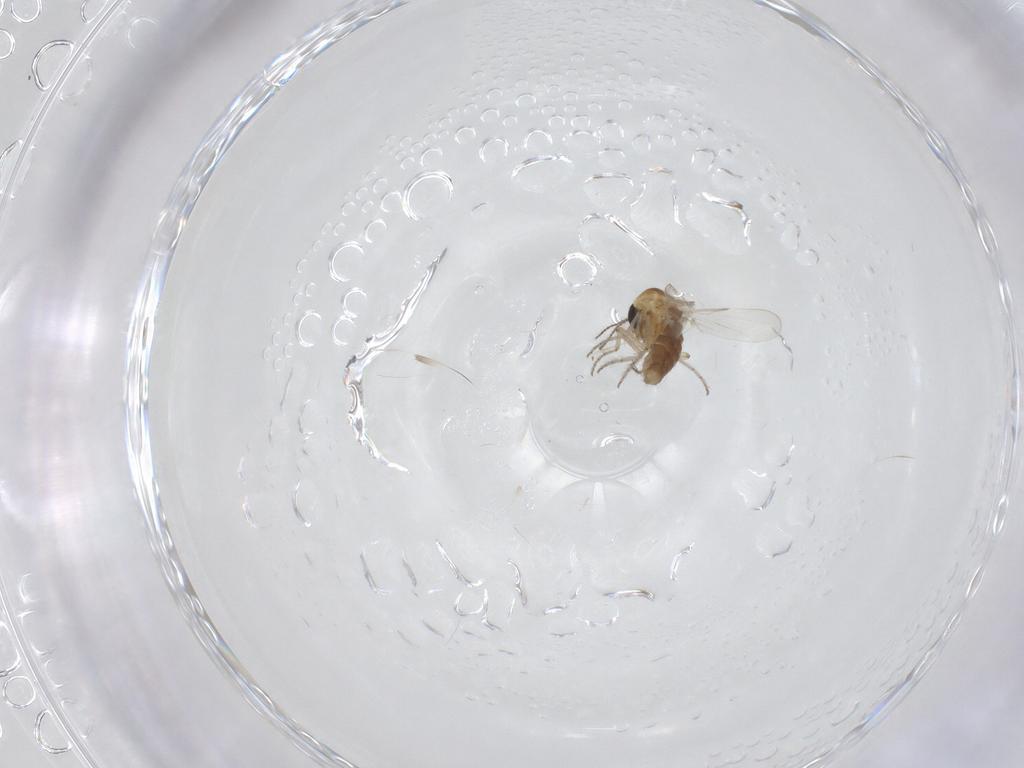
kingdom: Animalia
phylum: Arthropoda
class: Insecta
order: Diptera
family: Ceratopogonidae
